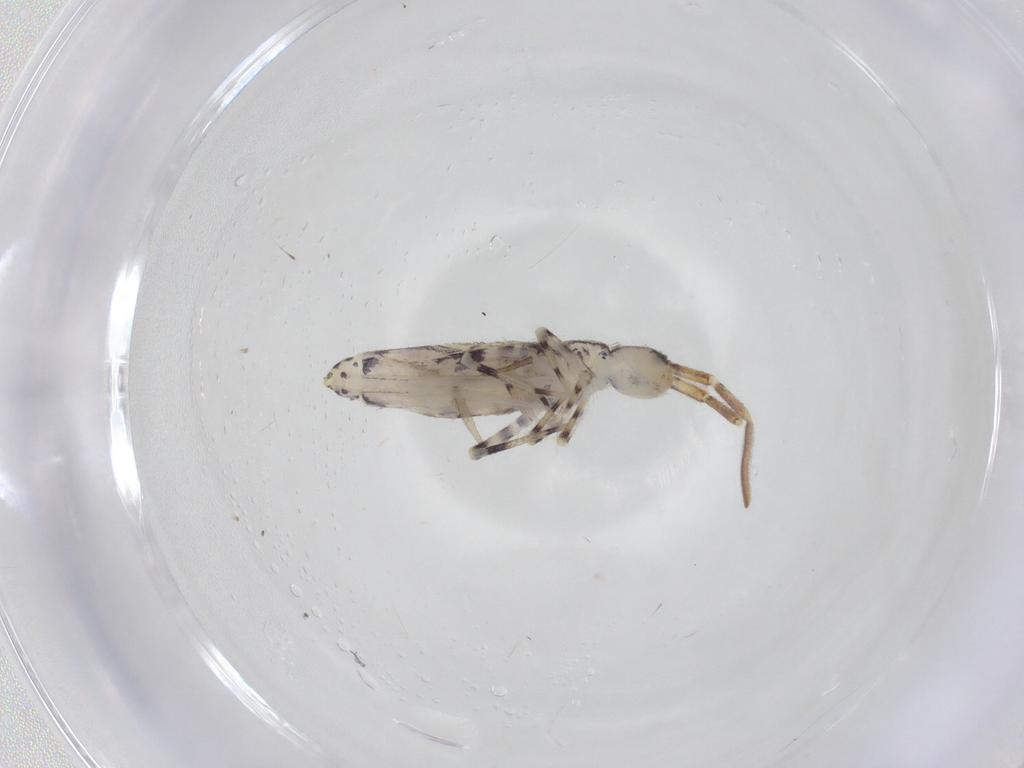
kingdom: Animalia
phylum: Arthropoda
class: Collembola
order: Entomobryomorpha
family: Entomobryidae
